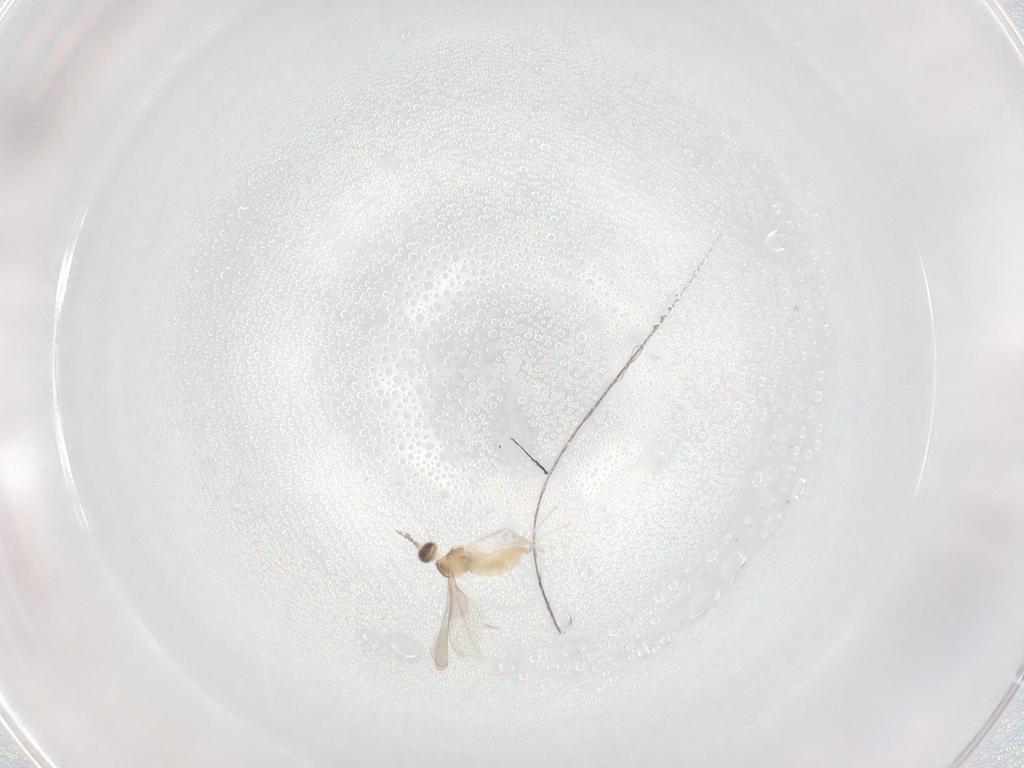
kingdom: Animalia
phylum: Arthropoda
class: Insecta
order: Diptera
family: Cecidomyiidae
